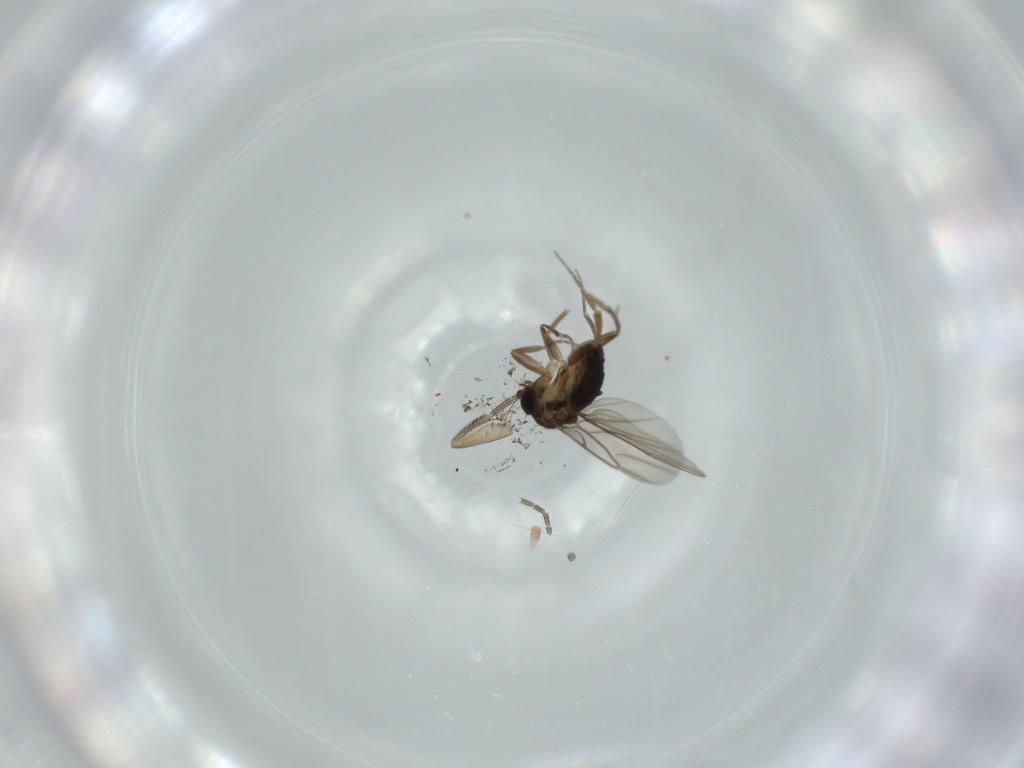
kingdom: Animalia
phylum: Arthropoda
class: Insecta
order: Diptera
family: Phoridae
